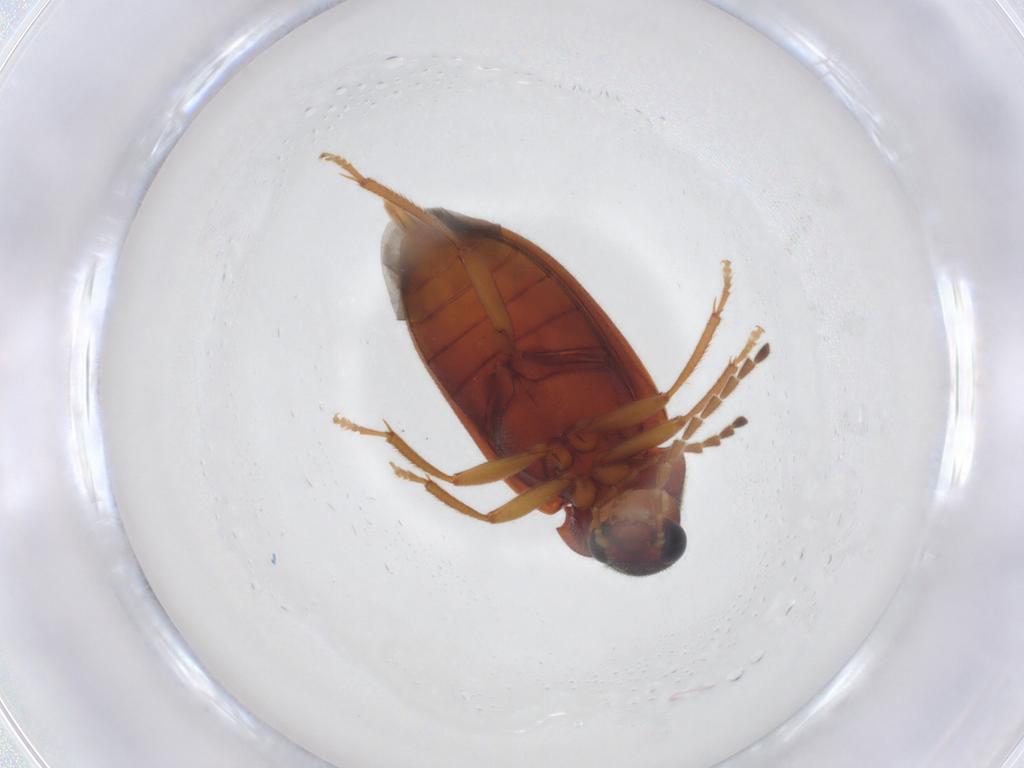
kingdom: Animalia
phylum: Arthropoda
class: Insecta
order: Coleoptera
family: Ptilodactylidae
